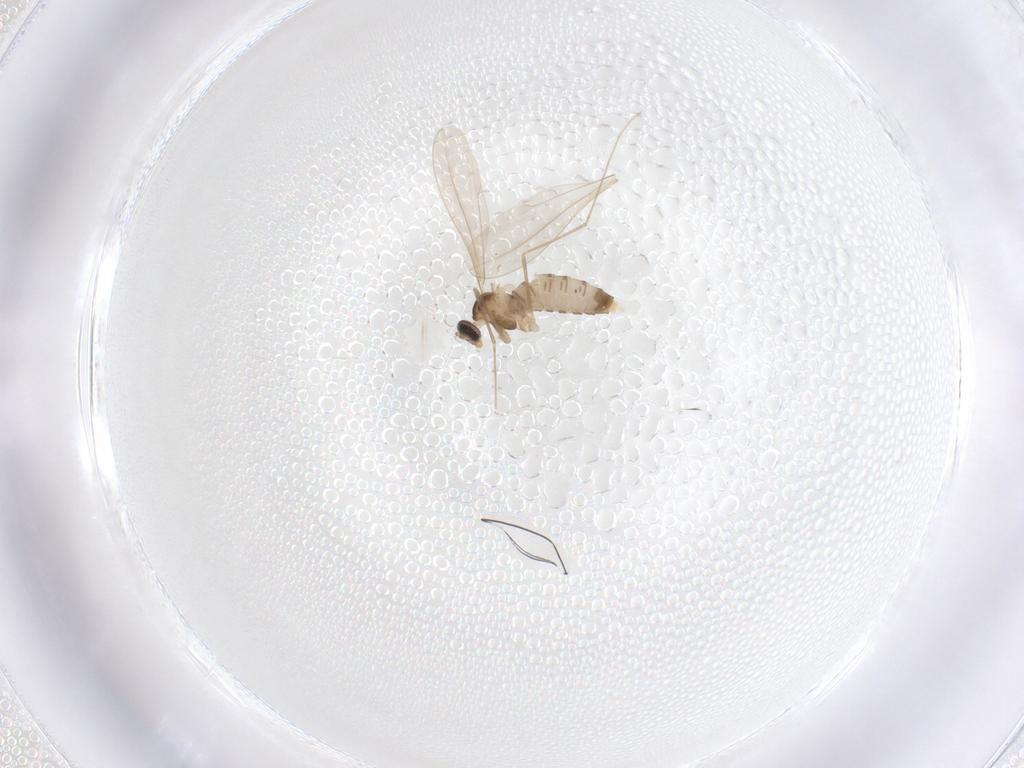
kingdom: Animalia
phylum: Arthropoda
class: Insecta
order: Diptera
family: Cecidomyiidae
